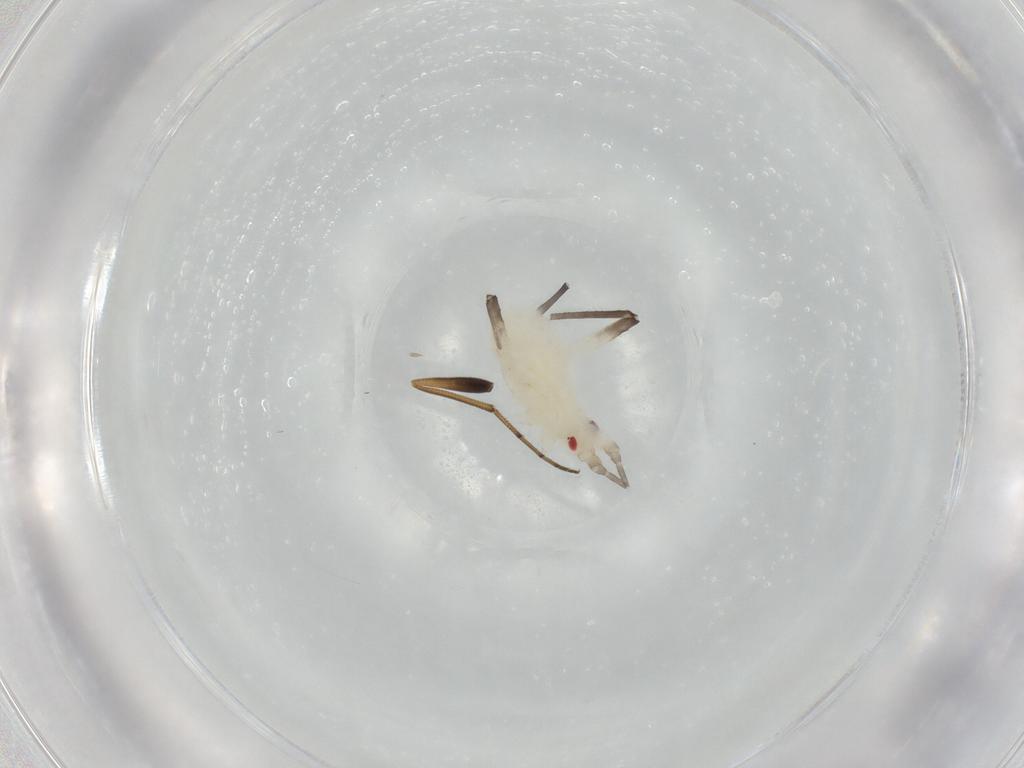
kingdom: Animalia
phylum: Arthropoda
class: Insecta
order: Hemiptera
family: Aphididae
